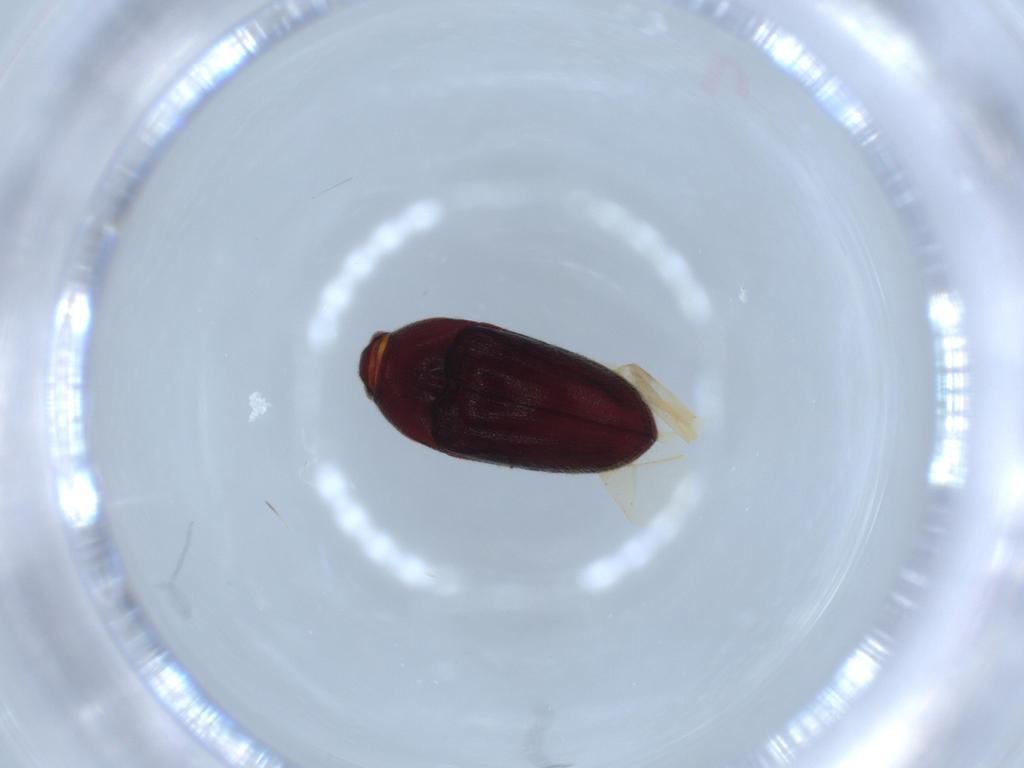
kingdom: Animalia
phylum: Arthropoda
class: Insecta
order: Coleoptera
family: Throscidae
